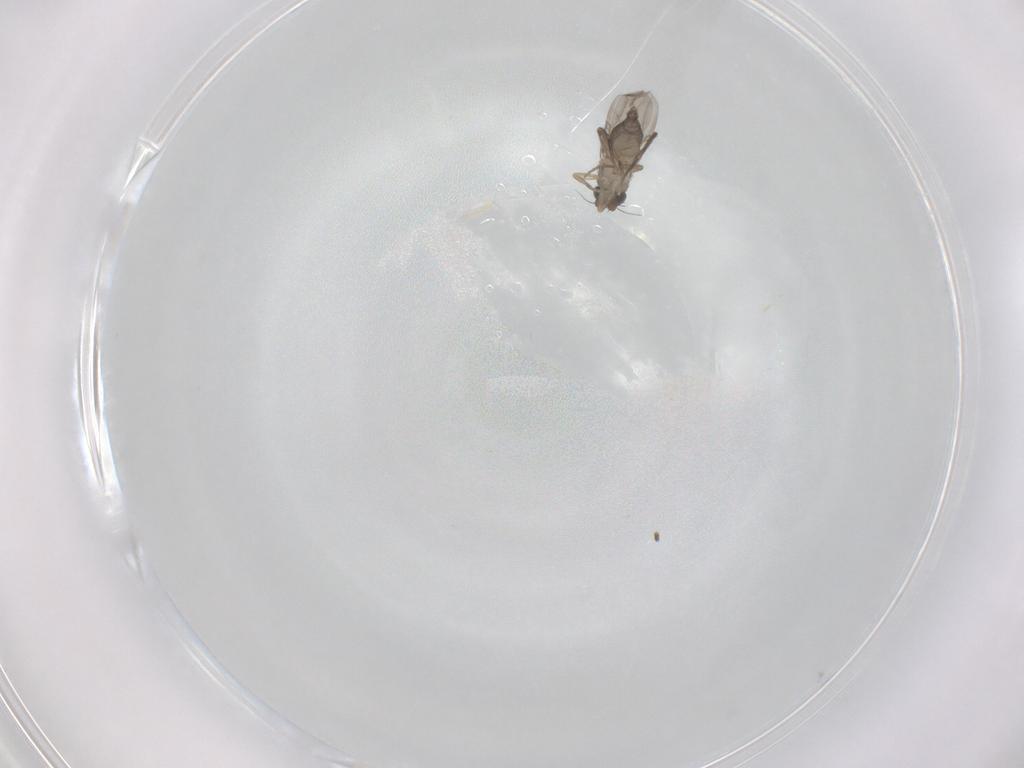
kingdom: Animalia
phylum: Arthropoda
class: Insecta
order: Diptera
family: Phoridae
